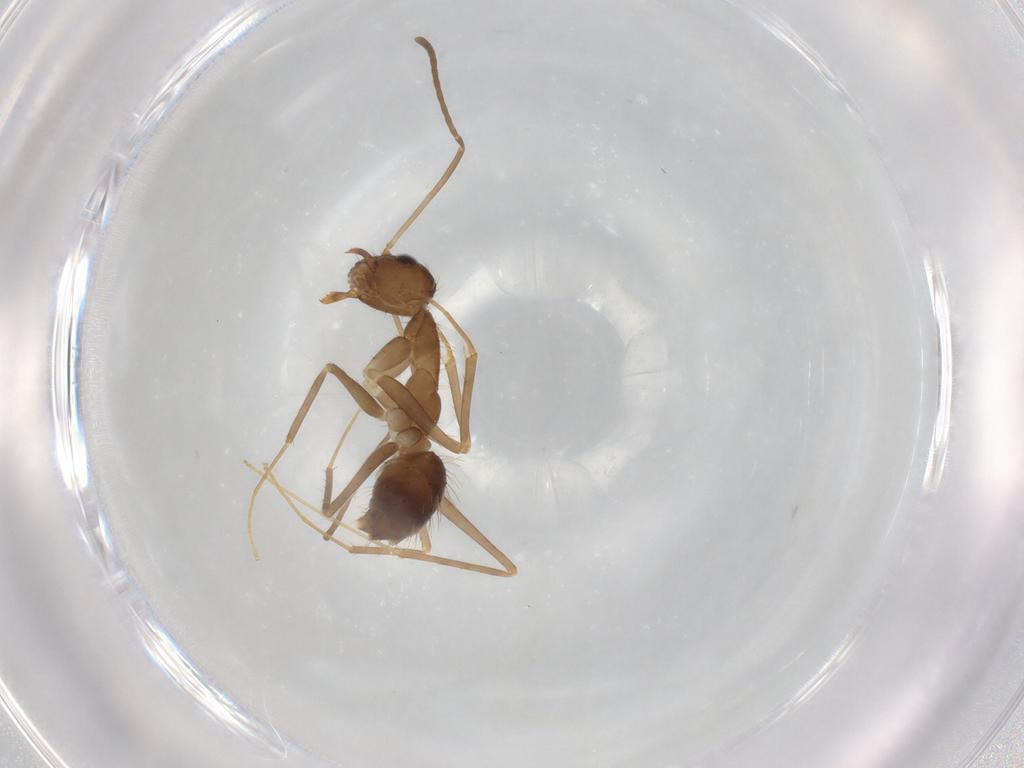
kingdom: Animalia
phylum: Arthropoda
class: Insecta
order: Hymenoptera
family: Formicidae
